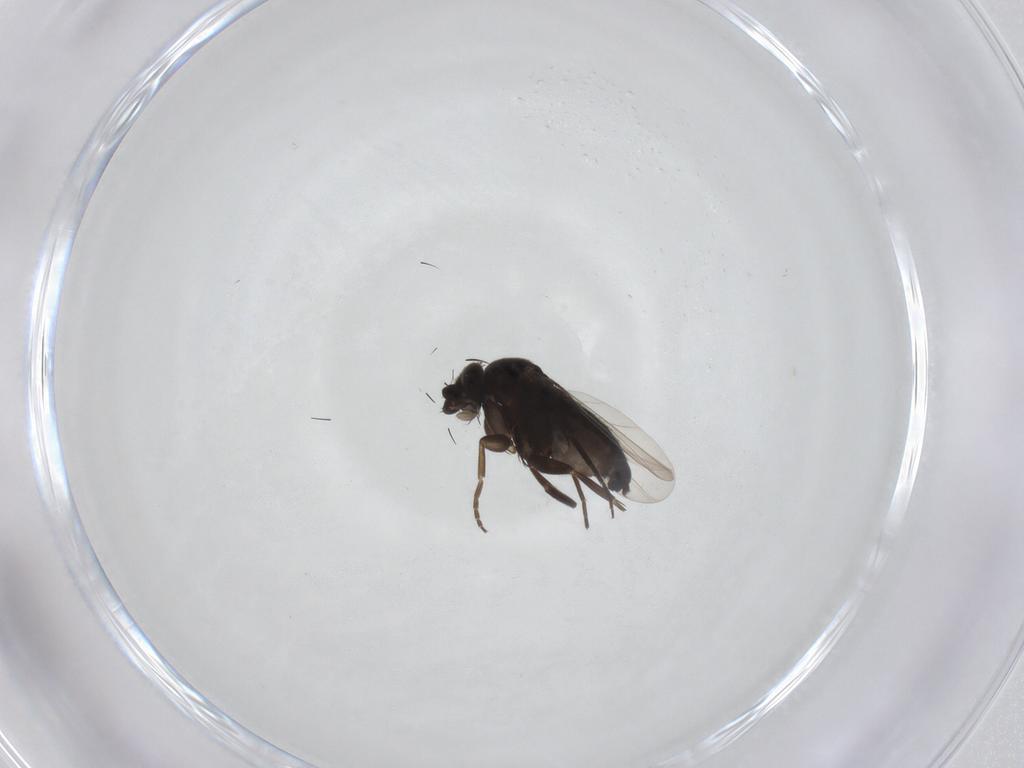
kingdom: Animalia
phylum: Arthropoda
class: Insecta
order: Diptera
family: Phoridae
